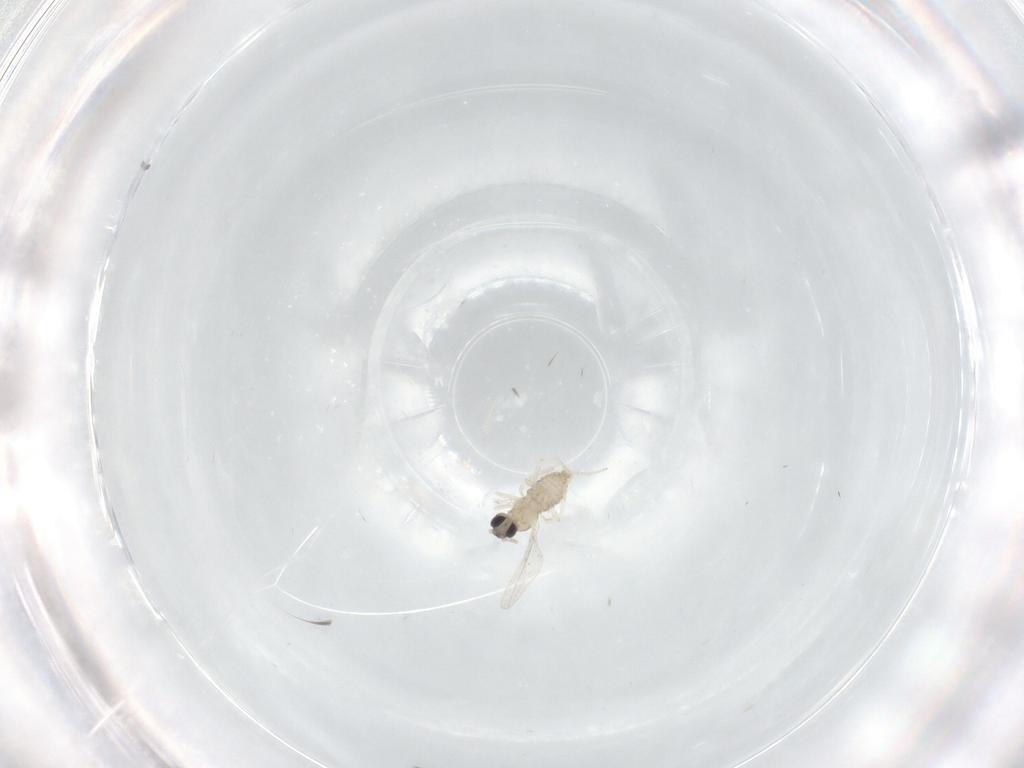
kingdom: Animalia
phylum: Arthropoda
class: Insecta
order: Diptera
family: Cecidomyiidae
